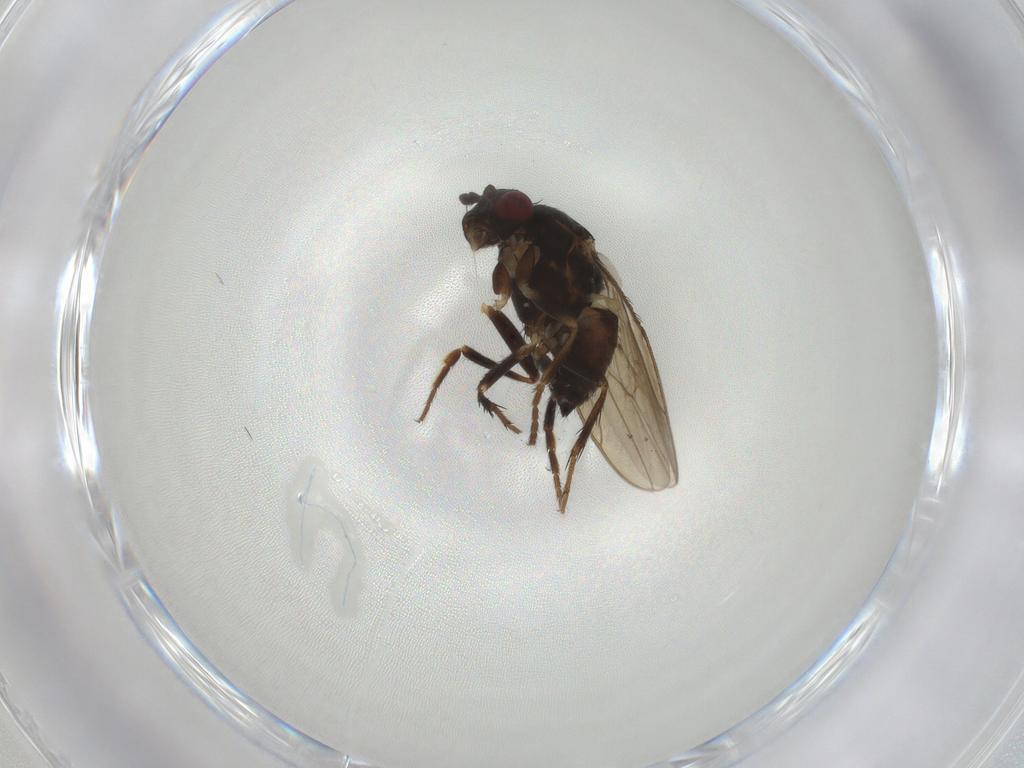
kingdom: Animalia
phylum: Arthropoda
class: Insecta
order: Diptera
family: Sphaeroceridae
